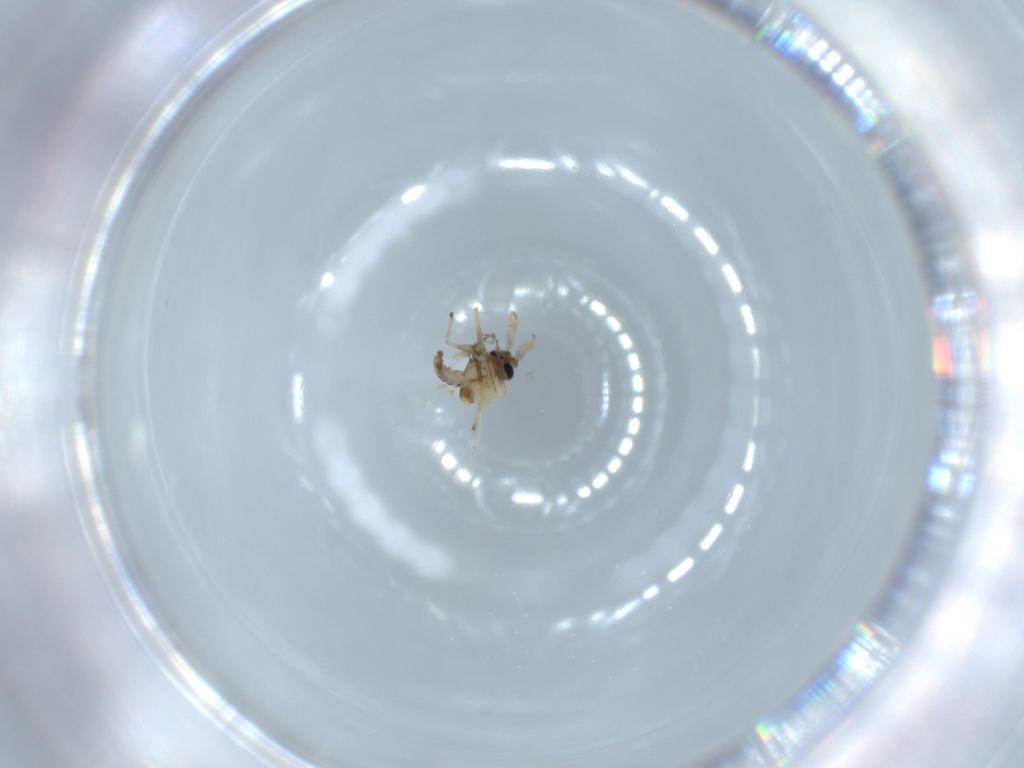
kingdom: Animalia
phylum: Arthropoda
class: Insecta
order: Diptera
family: Ceratopogonidae
